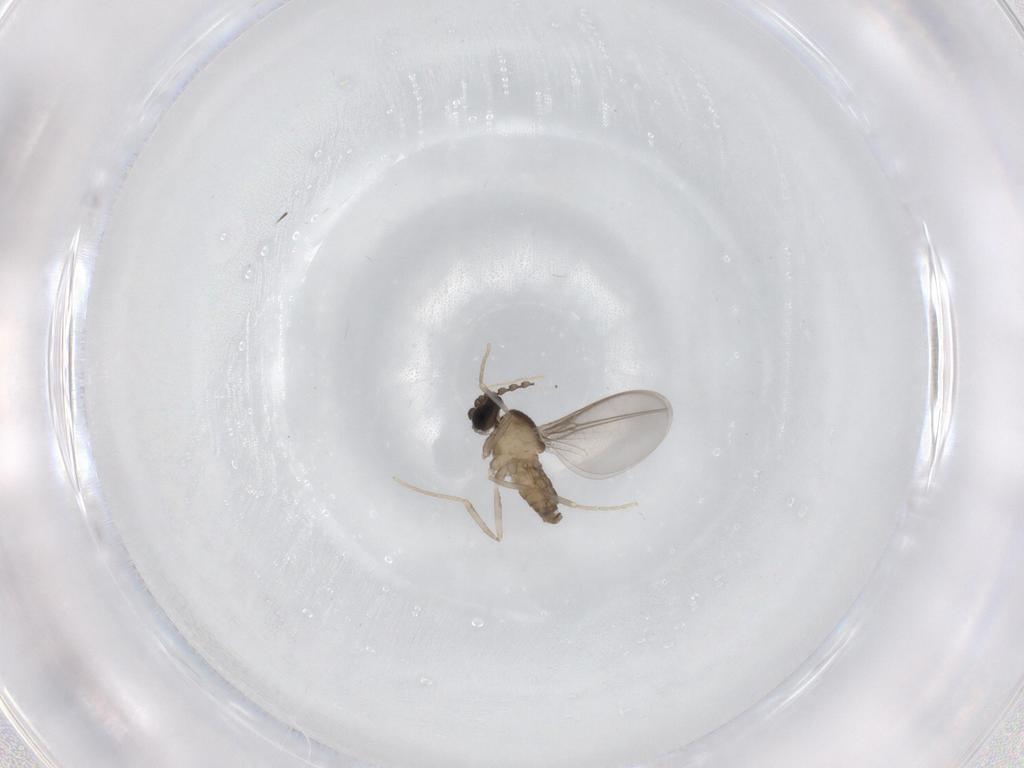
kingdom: Animalia
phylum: Arthropoda
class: Insecta
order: Diptera
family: Cecidomyiidae
